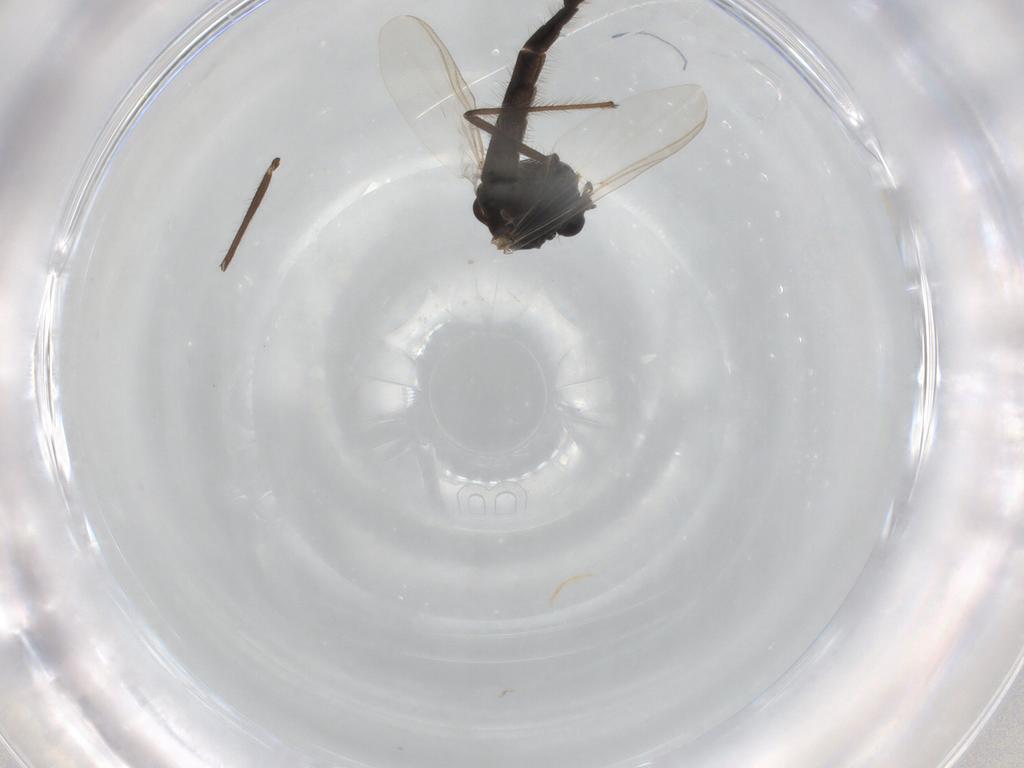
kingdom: Animalia
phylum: Arthropoda
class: Insecta
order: Diptera
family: Chironomidae
